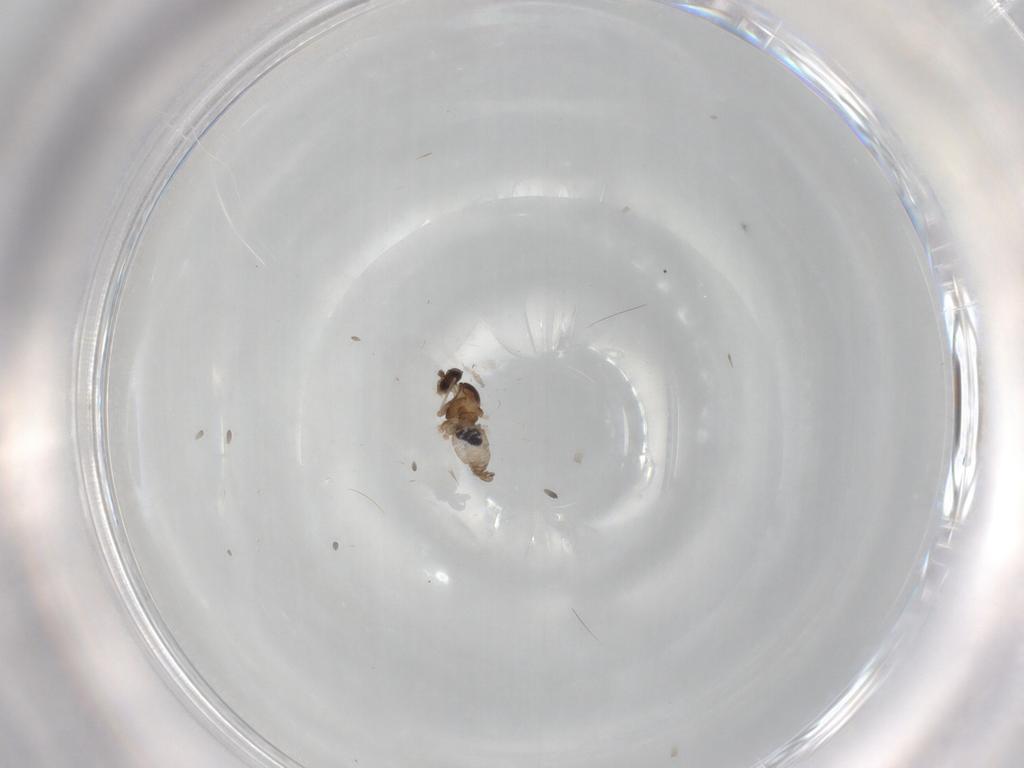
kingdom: Animalia
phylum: Arthropoda
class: Insecta
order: Diptera
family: Cecidomyiidae
